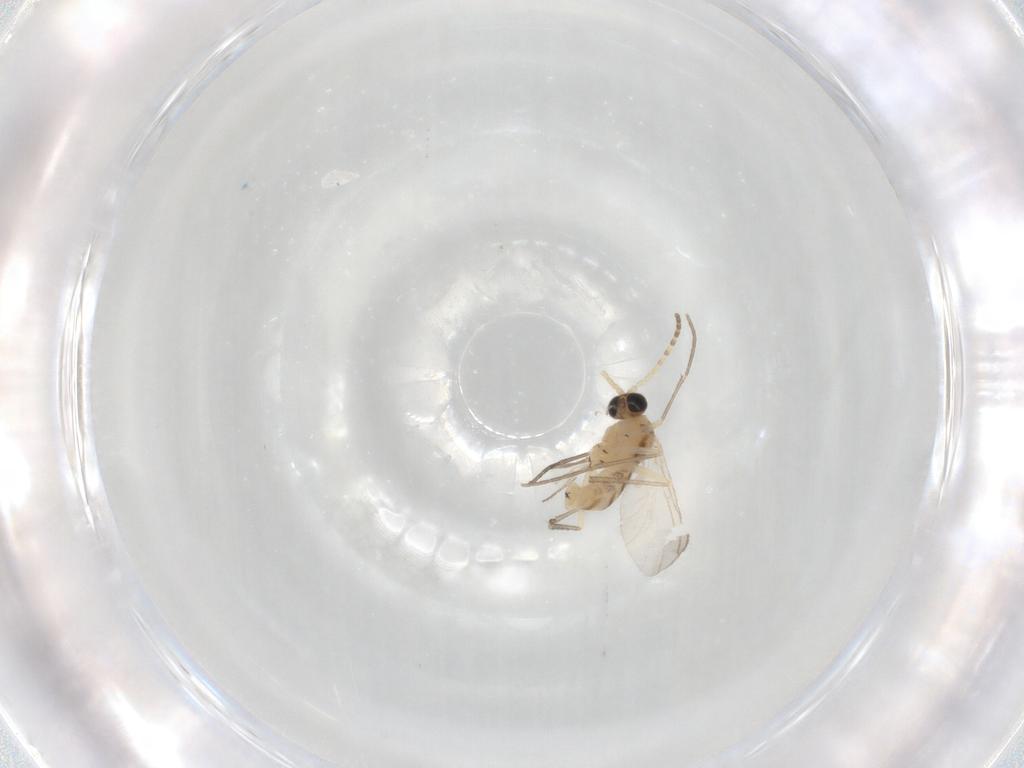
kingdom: Animalia
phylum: Arthropoda
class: Insecta
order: Diptera
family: Sciaridae
